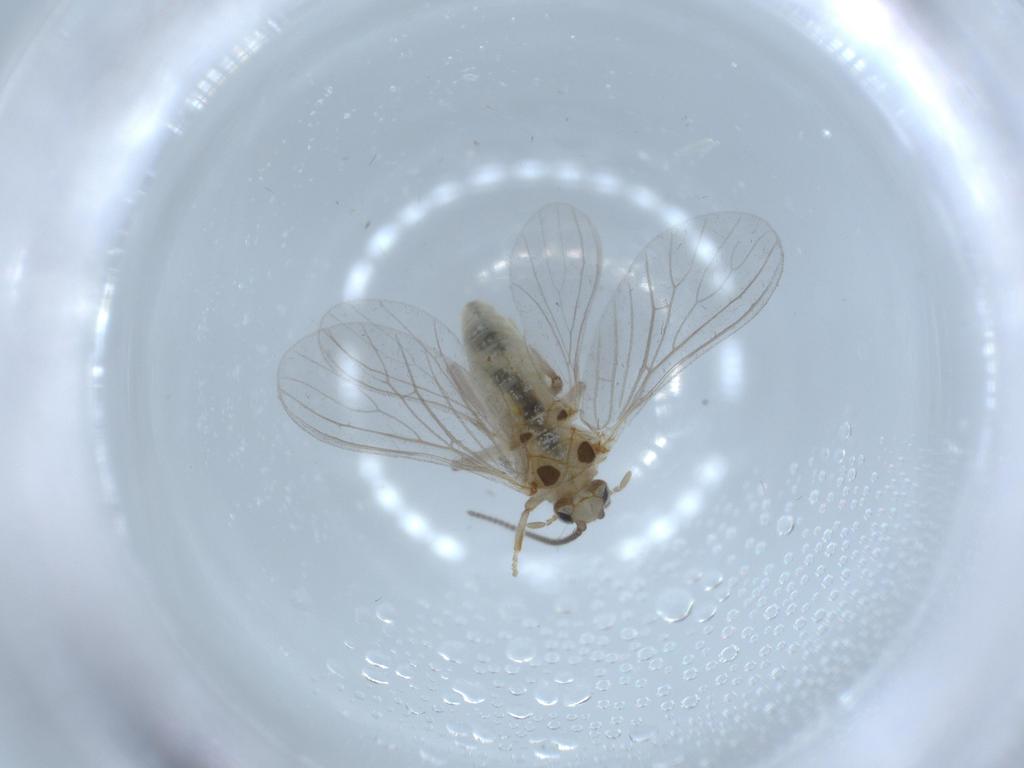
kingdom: Animalia
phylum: Arthropoda
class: Insecta
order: Neuroptera
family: Coniopterygidae
